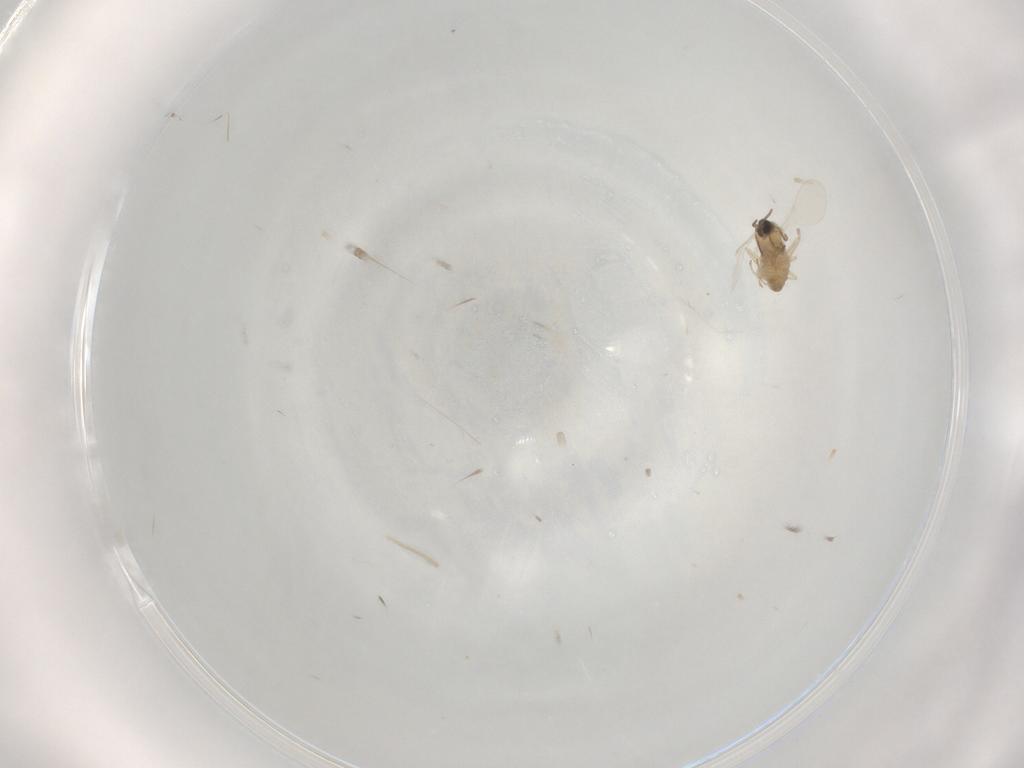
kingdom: Animalia
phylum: Arthropoda
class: Insecta
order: Diptera
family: Cecidomyiidae
